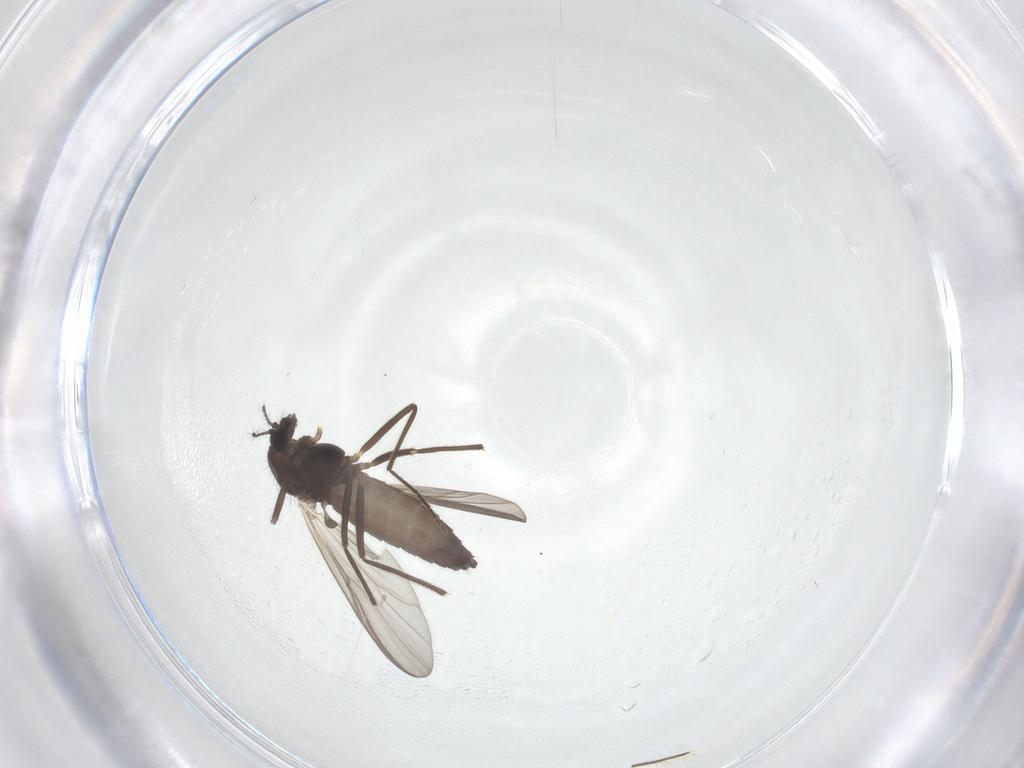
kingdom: Animalia
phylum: Arthropoda
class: Insecta
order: Diptera
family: Chironomidae
